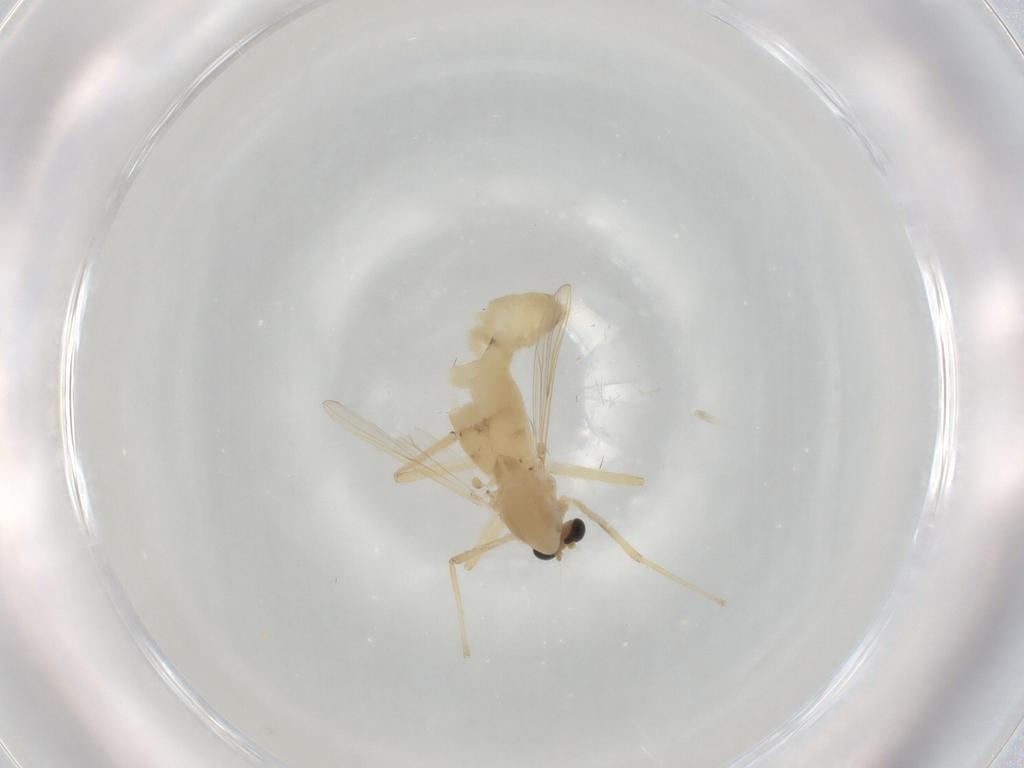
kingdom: Animalia
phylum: Arthropoda
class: Insecta
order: Diptera
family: Chironomidae
